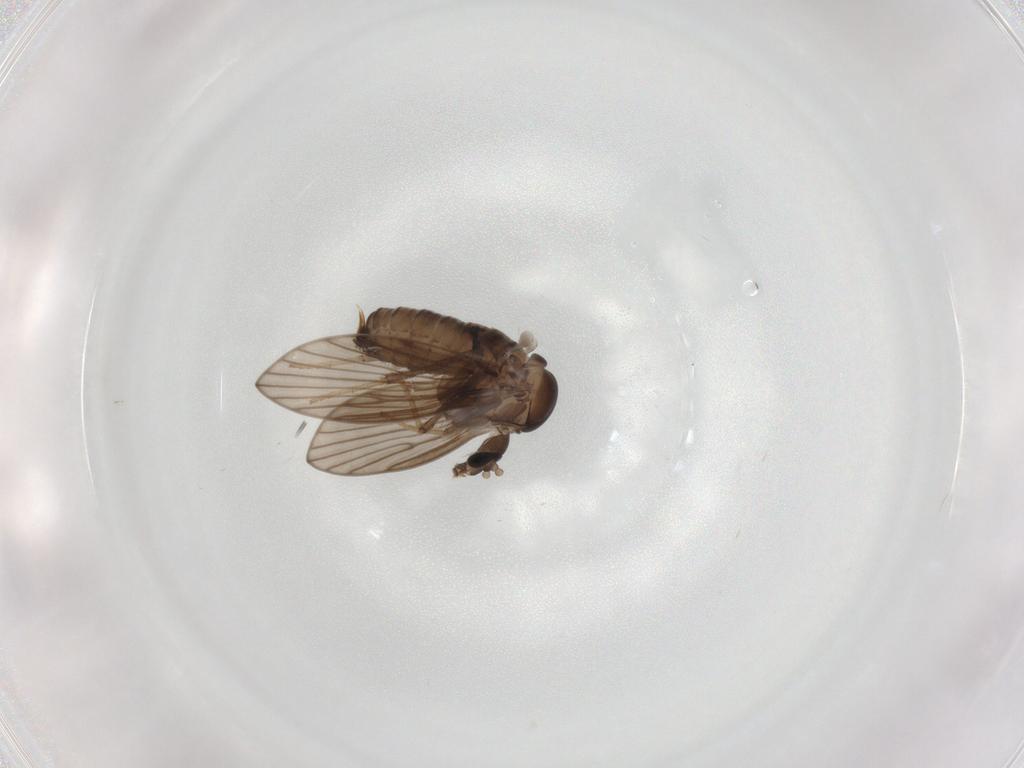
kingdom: Animalia
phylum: Arthropoda
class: Insecta
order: Diptera
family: Psychodidae
